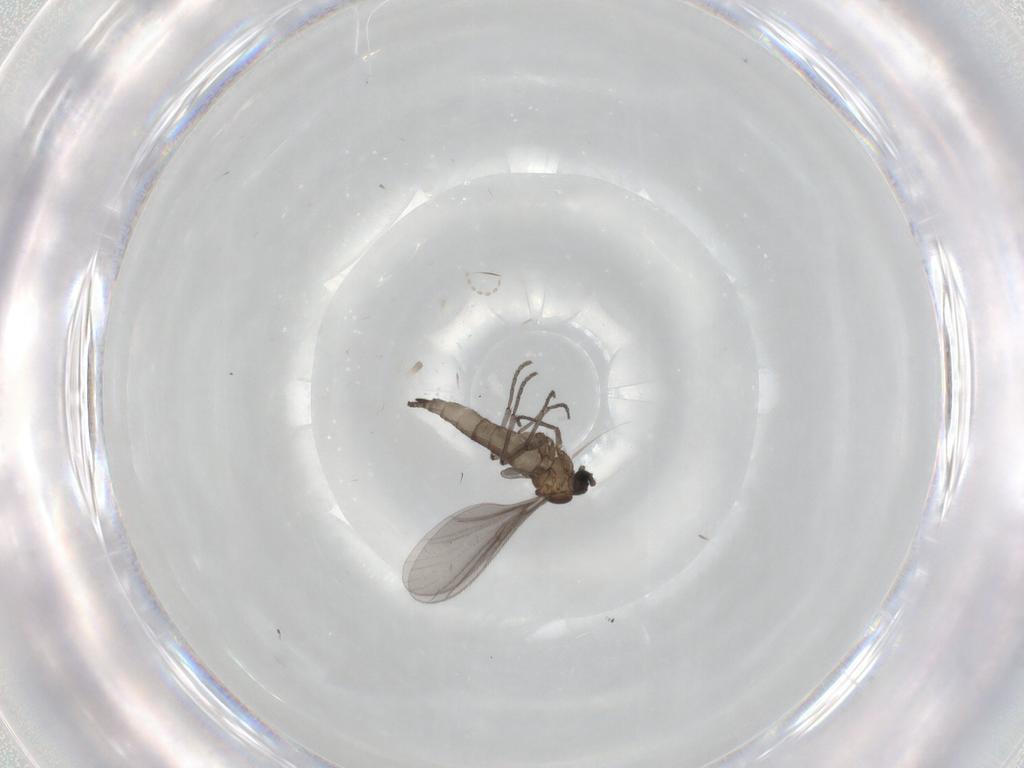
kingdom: Animalia
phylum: Arthropoda
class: Insecta
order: Diptera
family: Sciaridae
